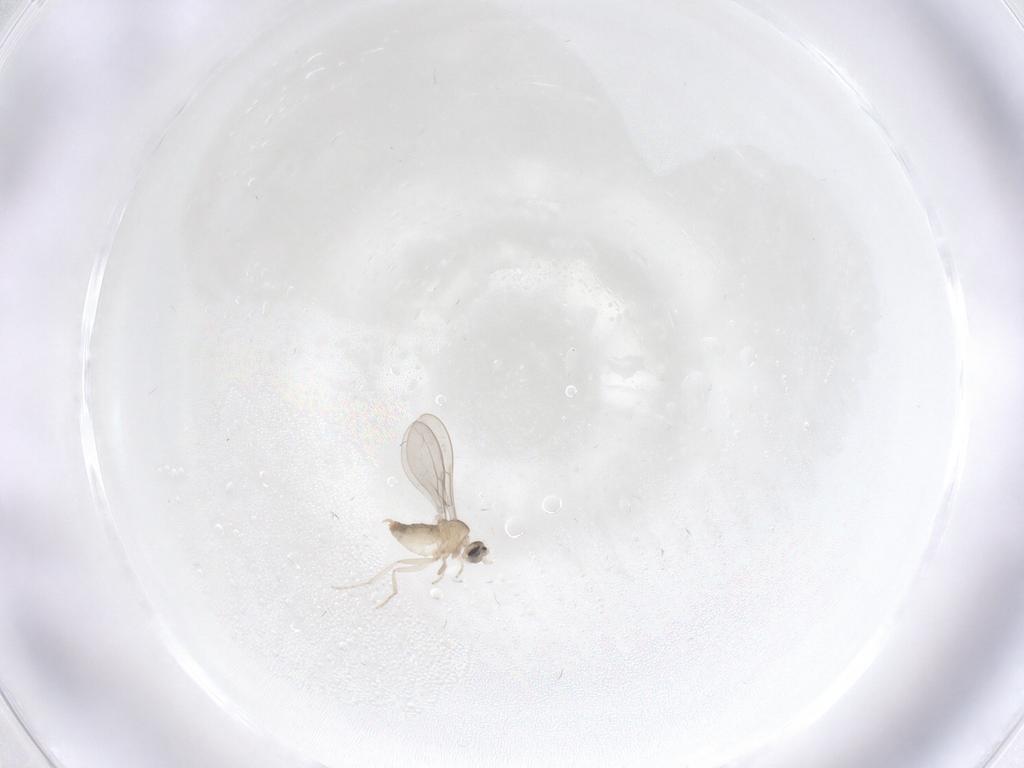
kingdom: Animalia
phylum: Arthropoda
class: Insecta
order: Diptera
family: Cecidomyiidae
